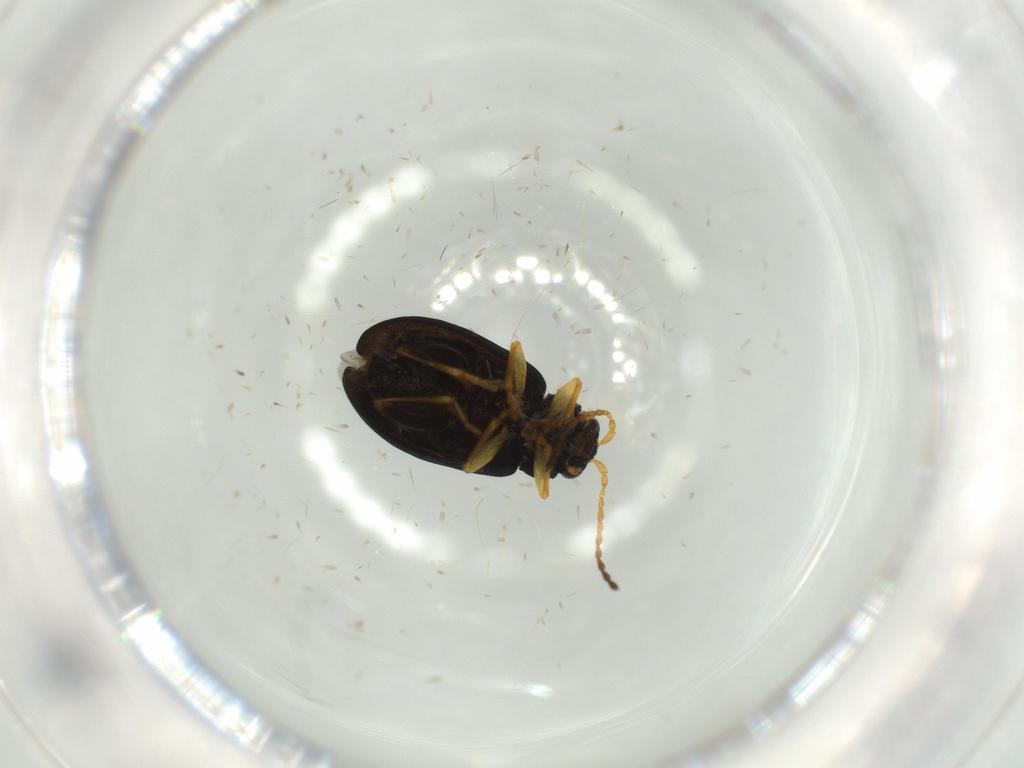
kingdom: Animalia
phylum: Arthropoda
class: Insecta
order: Coleoptera
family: Chrysomelidae
